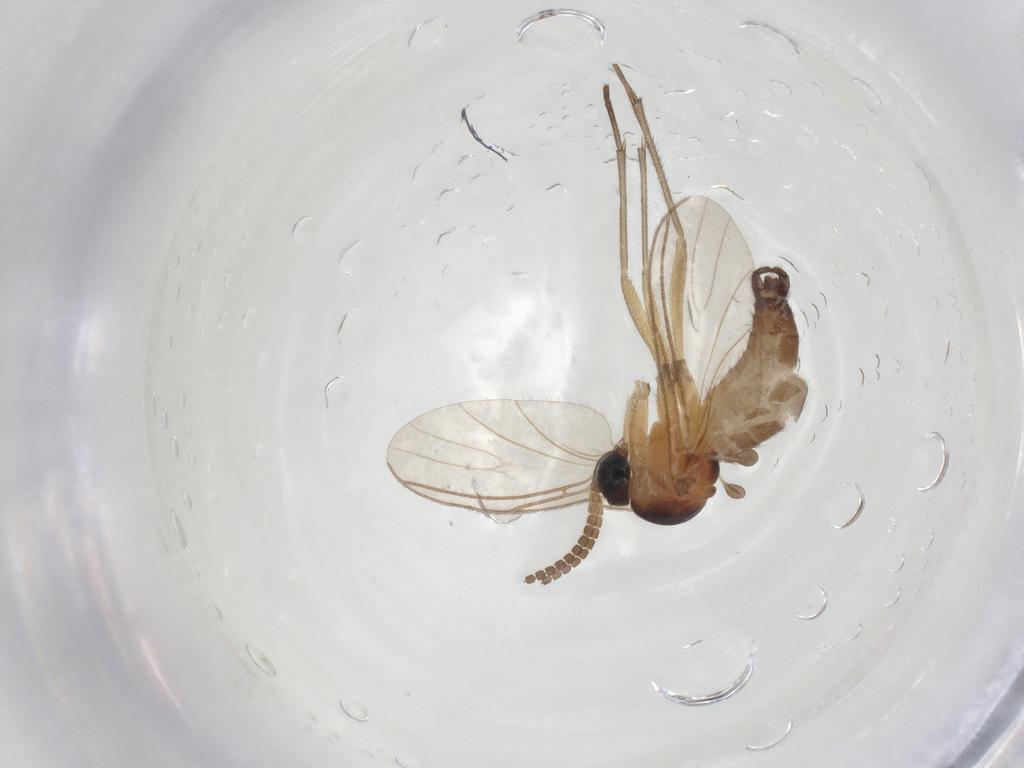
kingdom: Animalia
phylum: Arthropoda
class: Insecta
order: Diptera
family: Sciaridae
